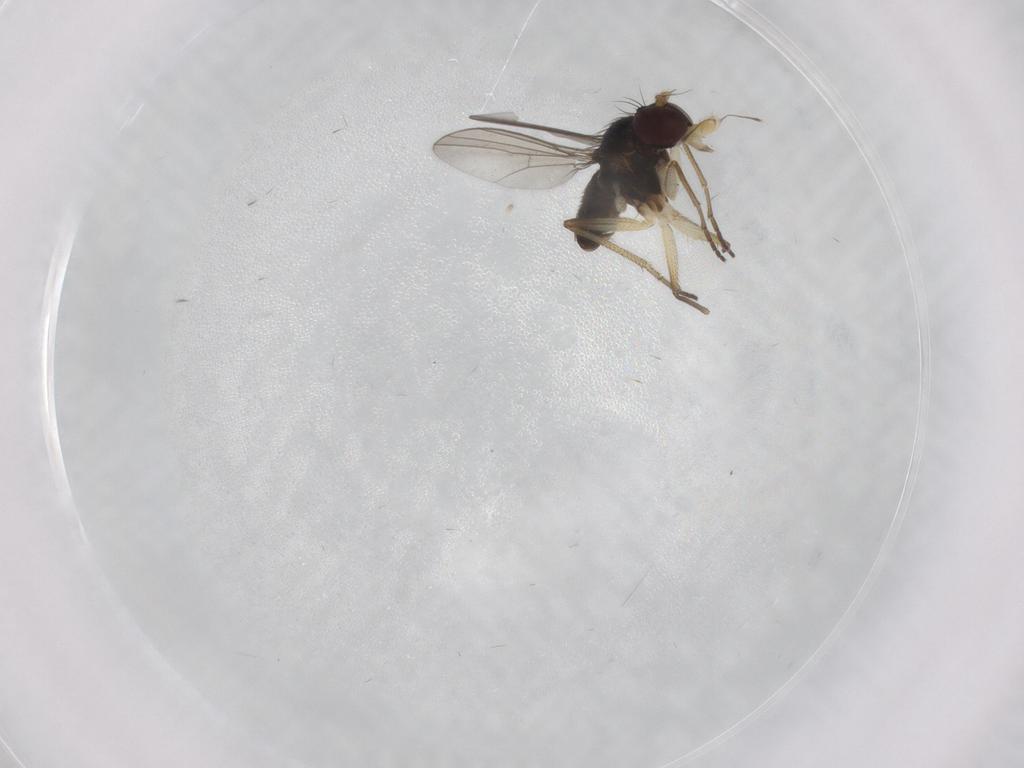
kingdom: Animalia
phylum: Arthropoda
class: Insecta
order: Diptera
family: Dolichopodidae
